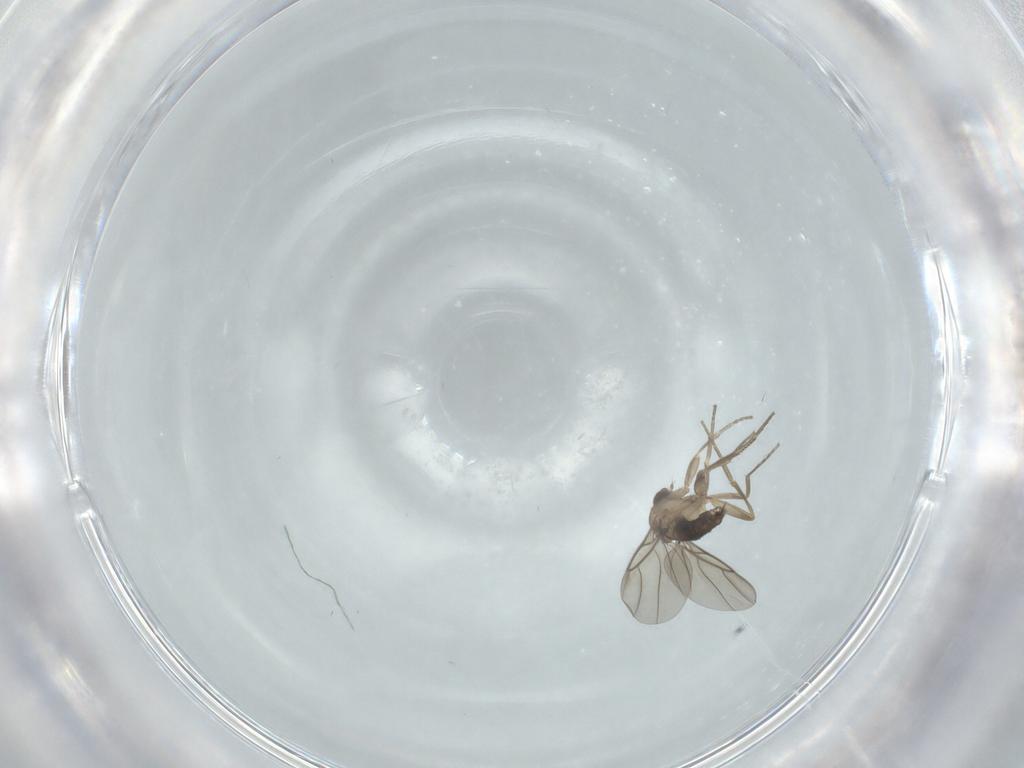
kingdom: Animalia
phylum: Arthropoda
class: Insecta
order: Diptera
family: Phoridae
